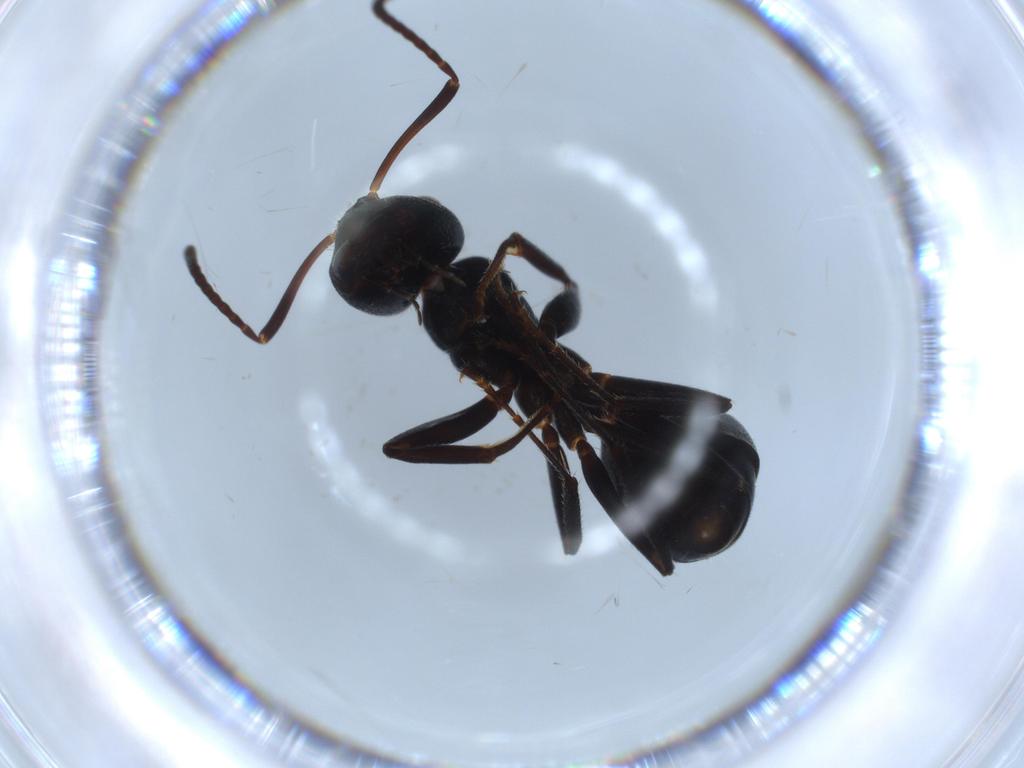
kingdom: Animalia
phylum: Arthropoda
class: Insecta
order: Hymenoptera
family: Formicidae
